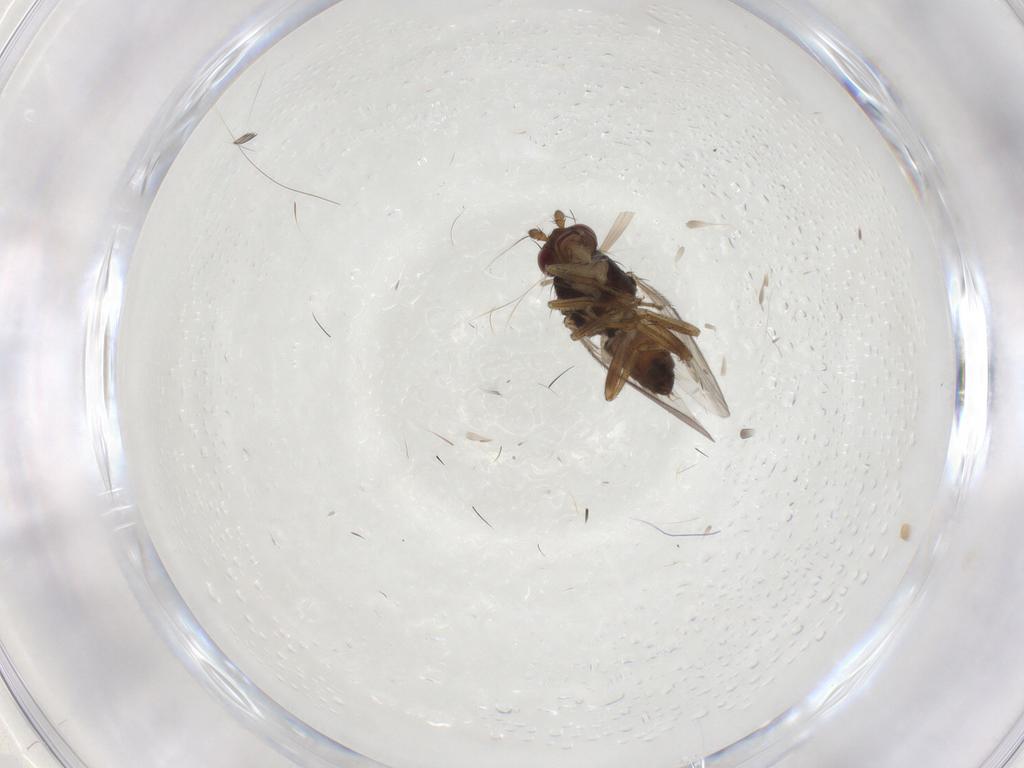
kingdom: Animalia
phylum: Arthropoda
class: Insecta
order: Diptera
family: Sphaeroceridae
